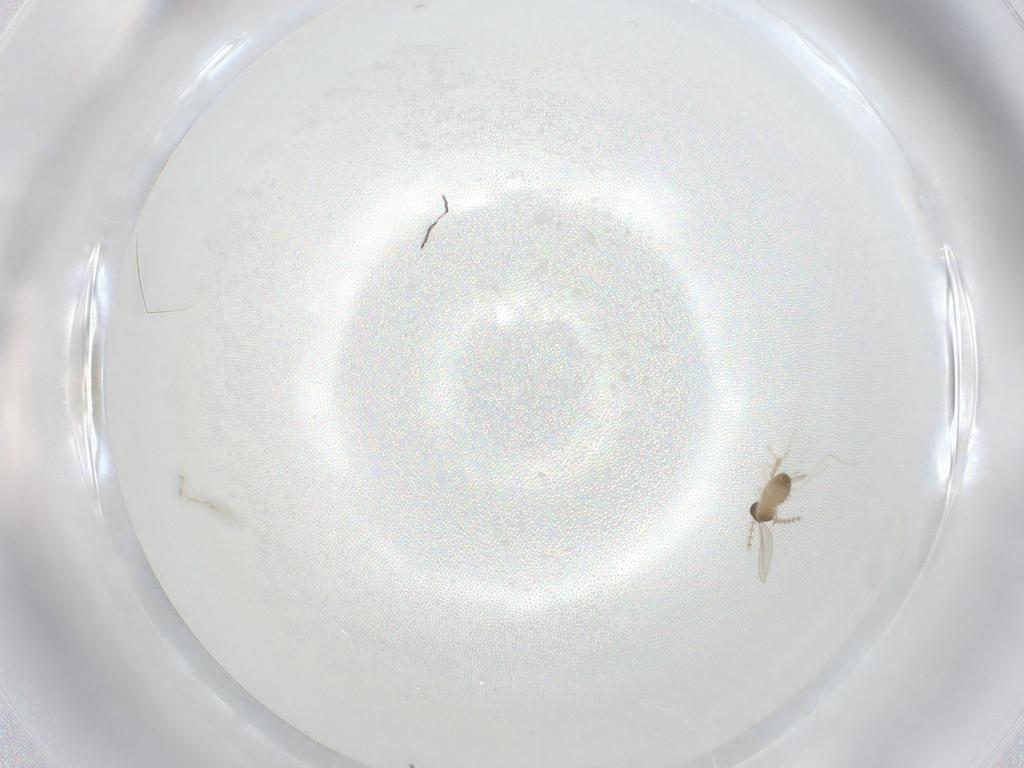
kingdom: Animalia
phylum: Arthropoda
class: Insecta
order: Diptera
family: Cecidomyiidae
